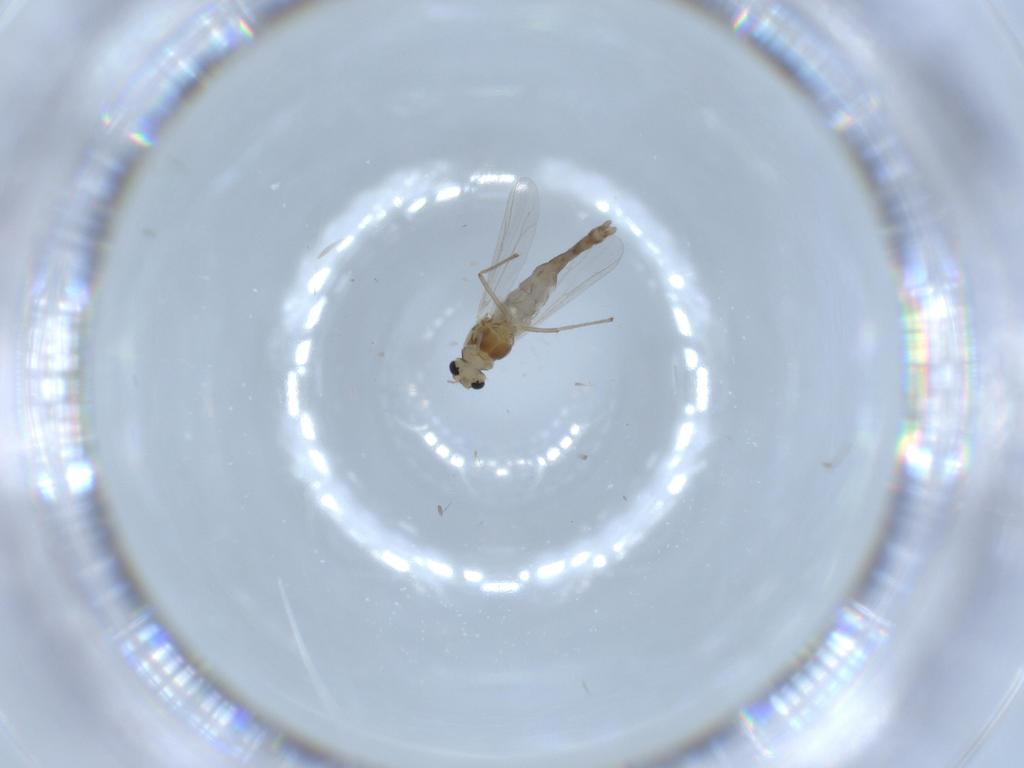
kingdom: Animalia
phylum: Arthropoda
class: Insecta
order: Diptera
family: Chironomidae
